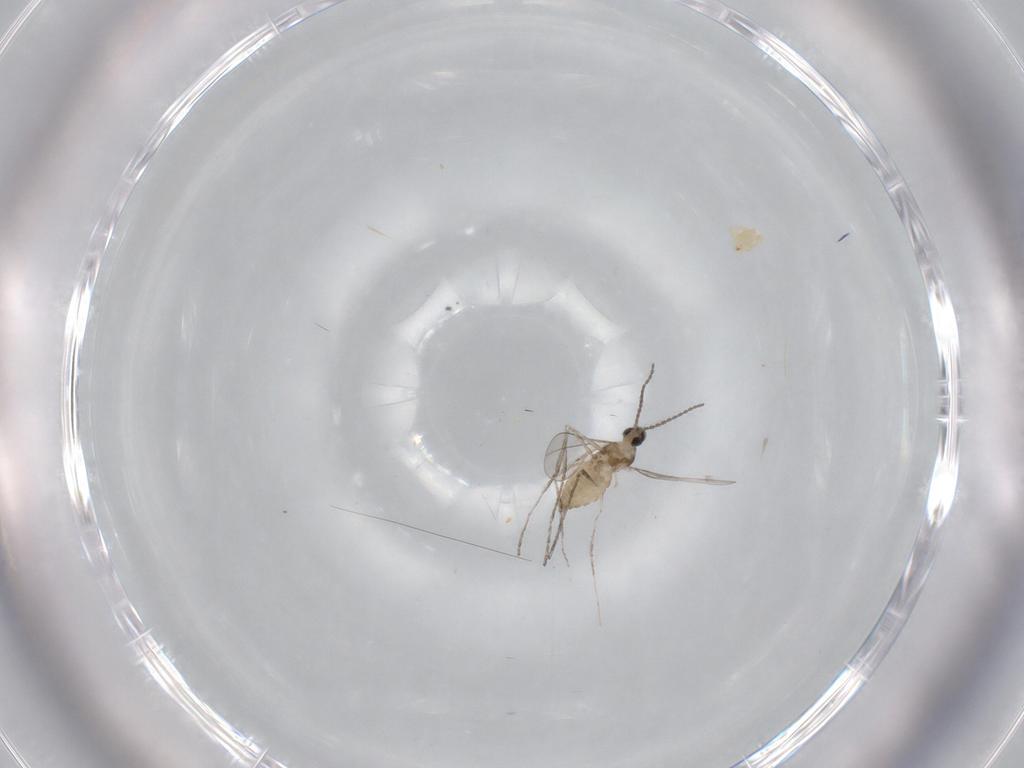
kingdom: Animalia
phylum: Arthropoda
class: Insecta
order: Diptera
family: Cecidomyiidae
